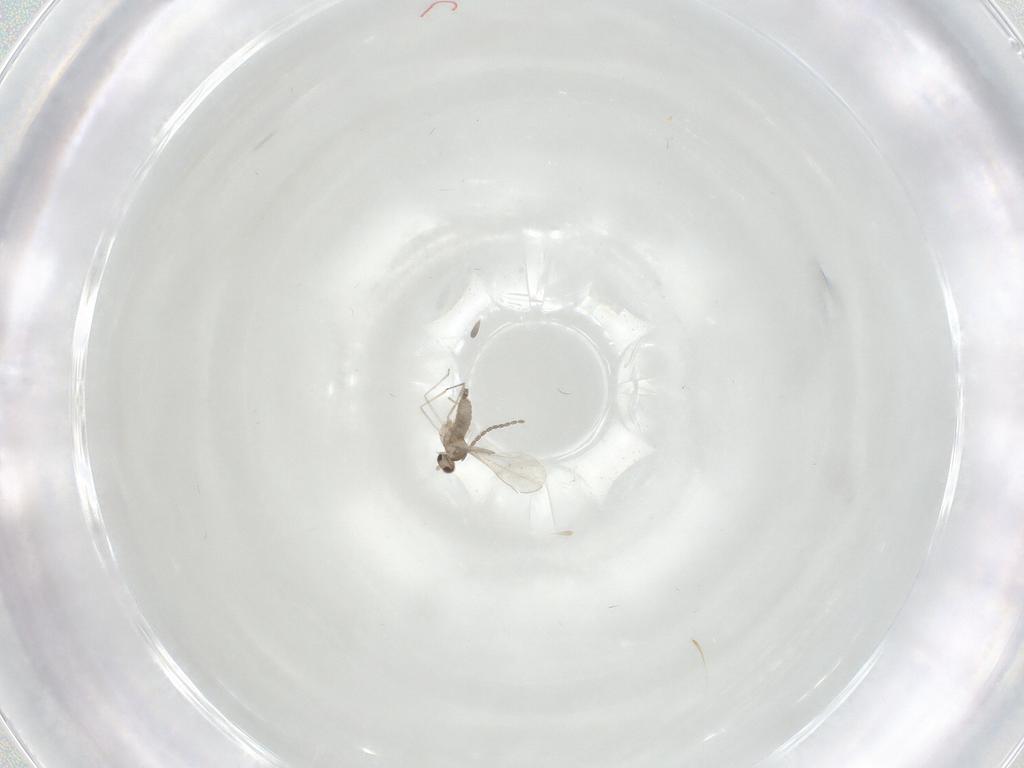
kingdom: Animalia
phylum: Arthropoda
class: Insecta
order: Diptera
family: Cecidomyiidae
